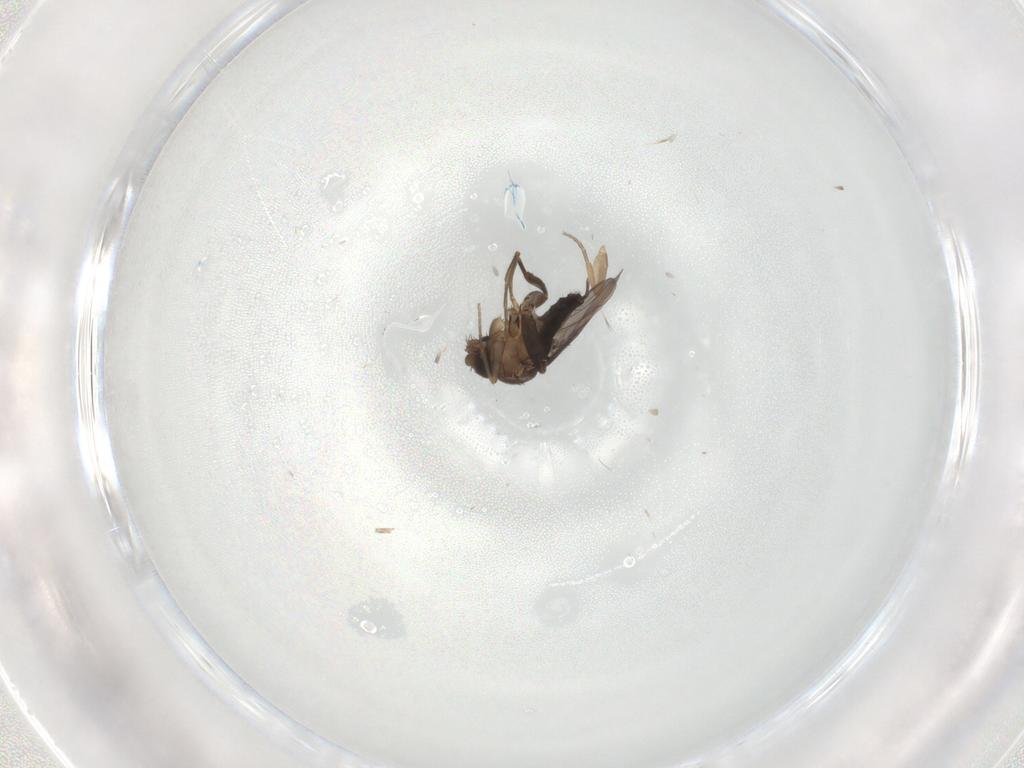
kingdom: Animalia
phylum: Arthropoda
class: Insecta
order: Diptera
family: Phoridae
